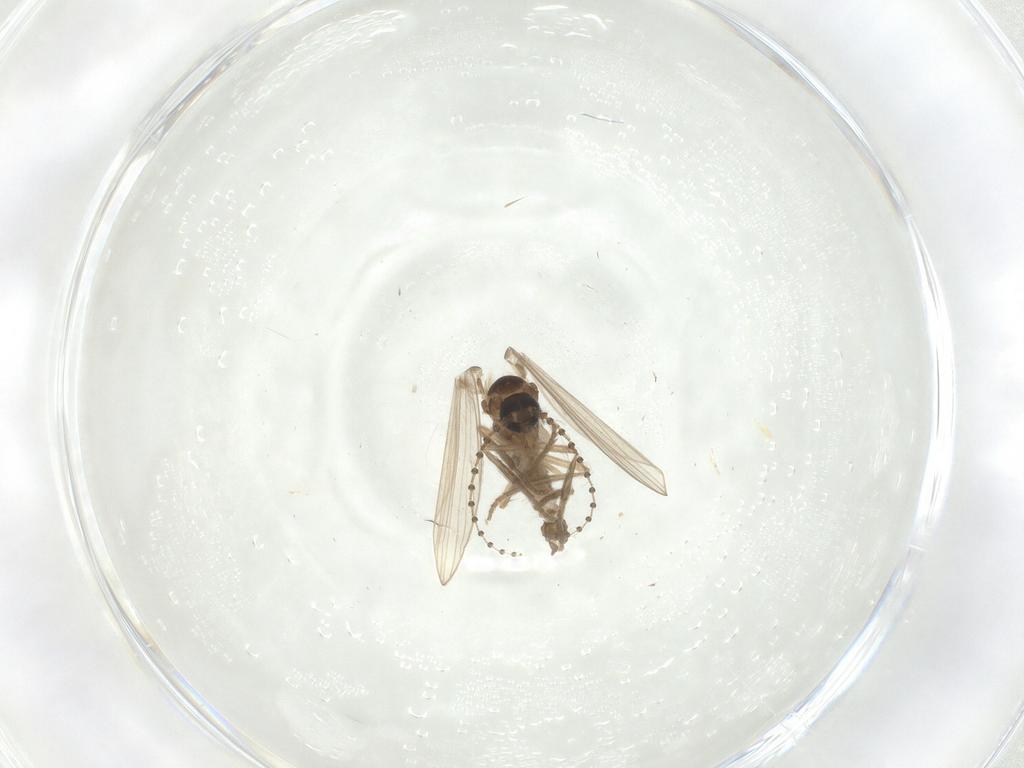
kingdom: Animalia
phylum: Arthropoda
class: Insecta
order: Diptera
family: Psychodidae
